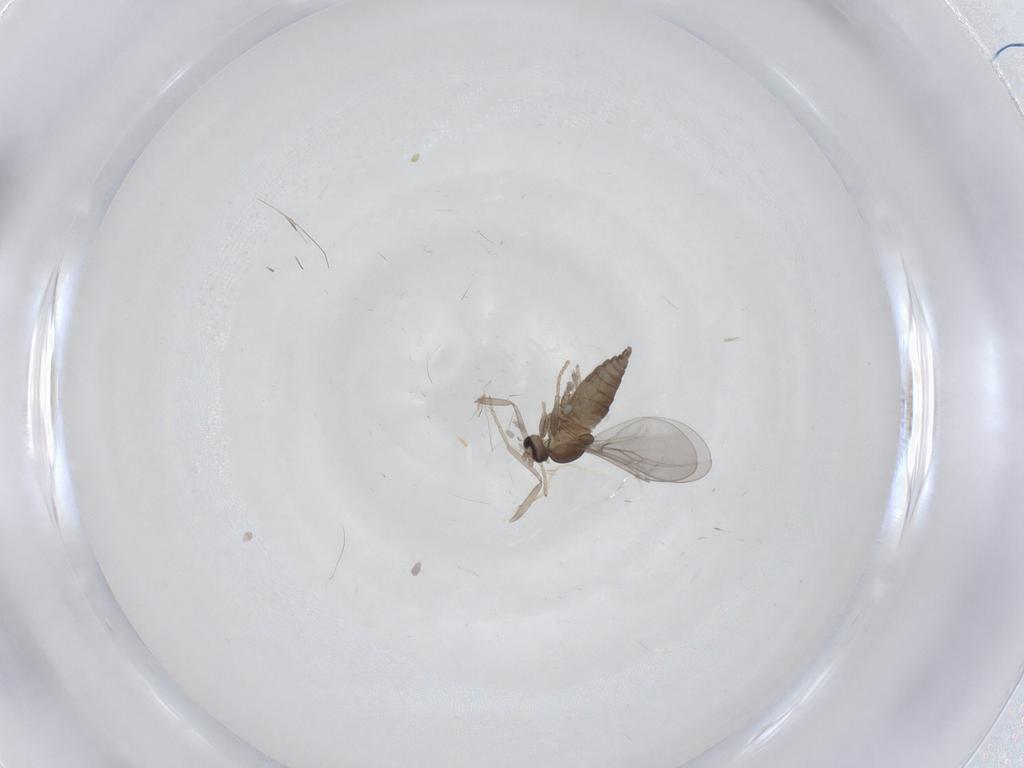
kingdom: Animalia
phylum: Arthropoda
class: Insecta
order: Diptera
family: Cecidomyiidae
